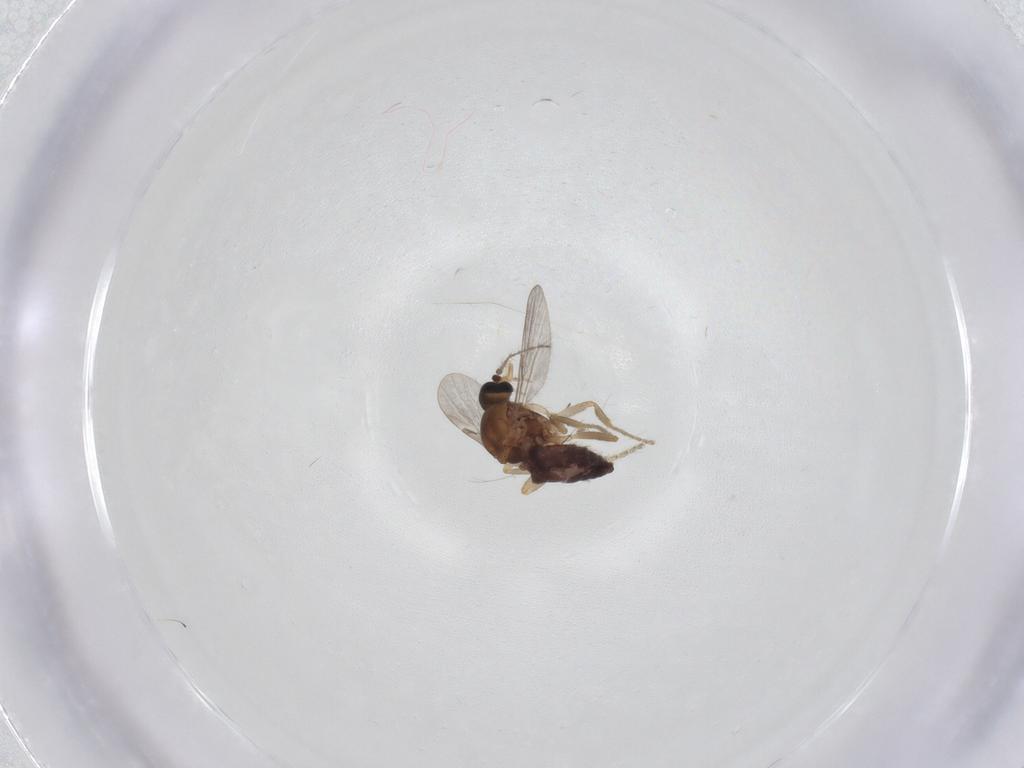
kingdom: Animalia
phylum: Arthropoda
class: Insecta
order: Diptera
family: Ceratopogonidae
